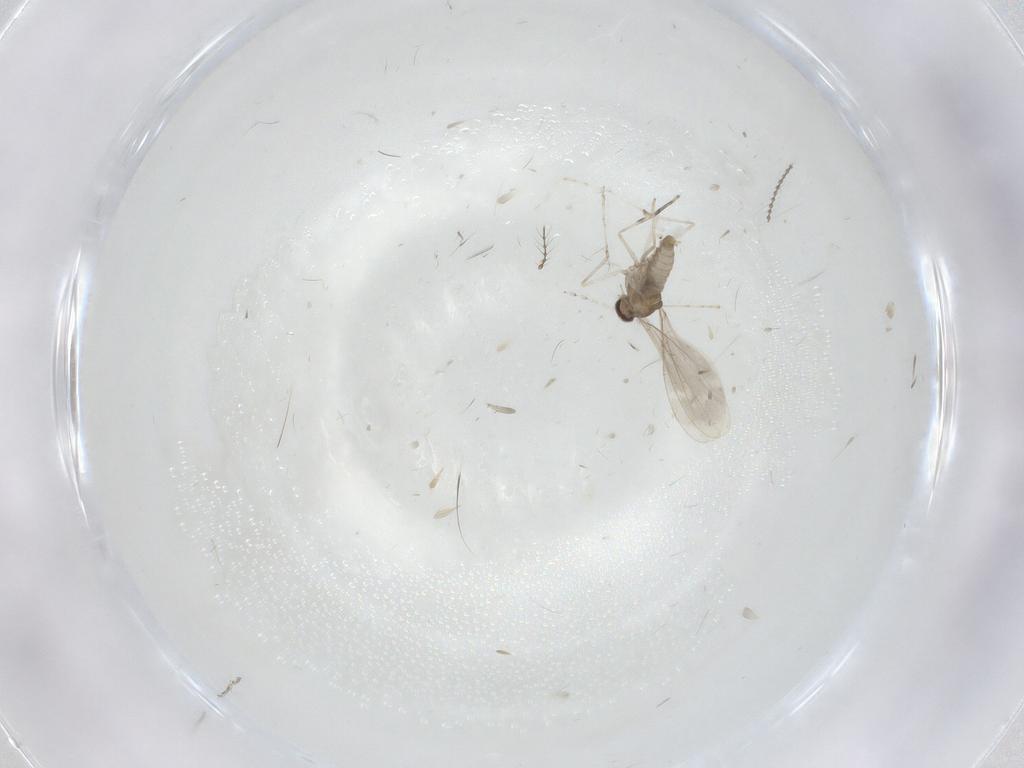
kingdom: Animalia
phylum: Arthropoda
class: Insecta
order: Diptera
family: Cecidomyiidae
